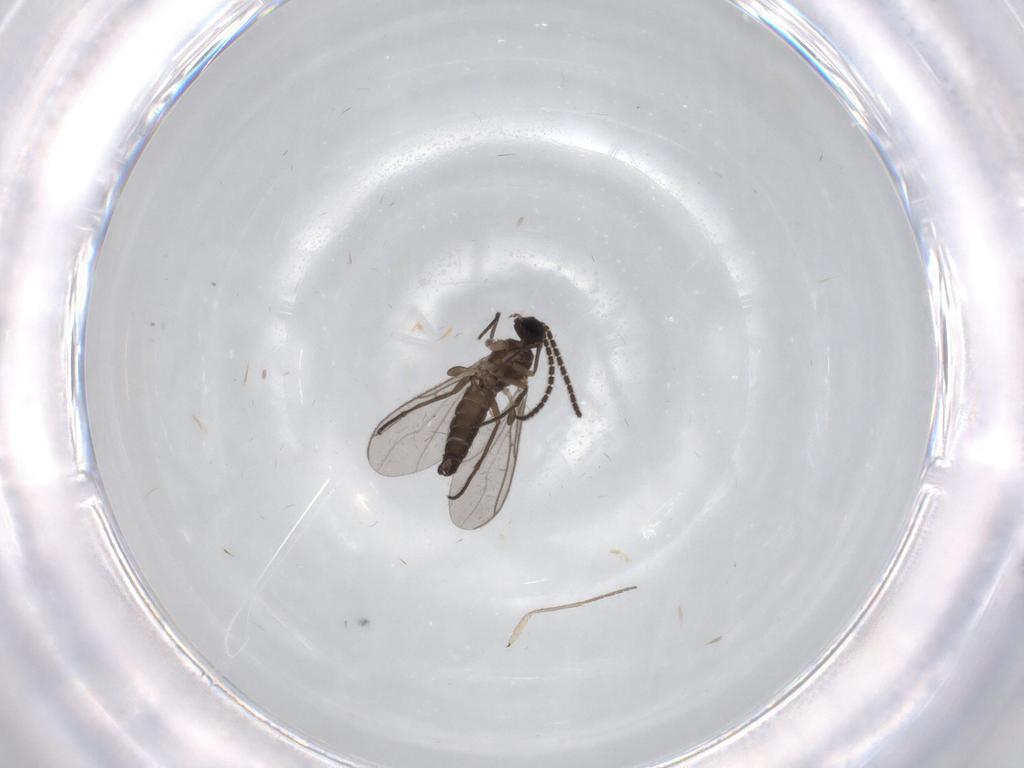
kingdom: Animalia
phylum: Arthropoda
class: Insecta
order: Diptera
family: Sciaridae
